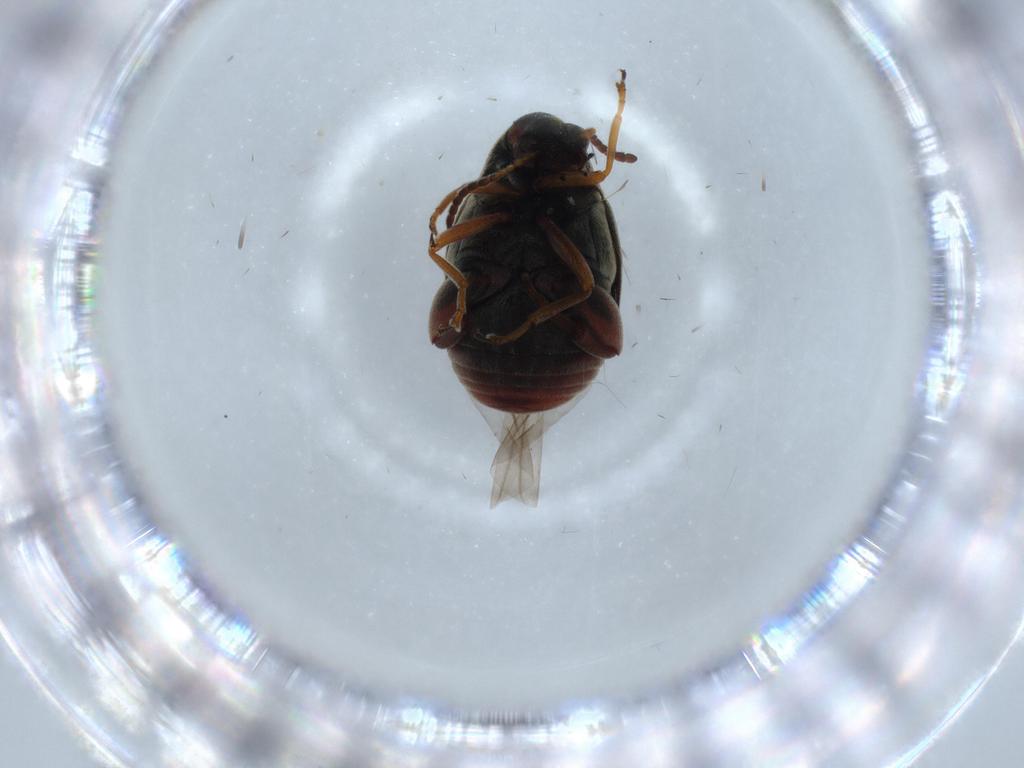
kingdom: Animalia
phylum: Arthropoda
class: Insecta
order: Coleoptera
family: Chrysomelidae
